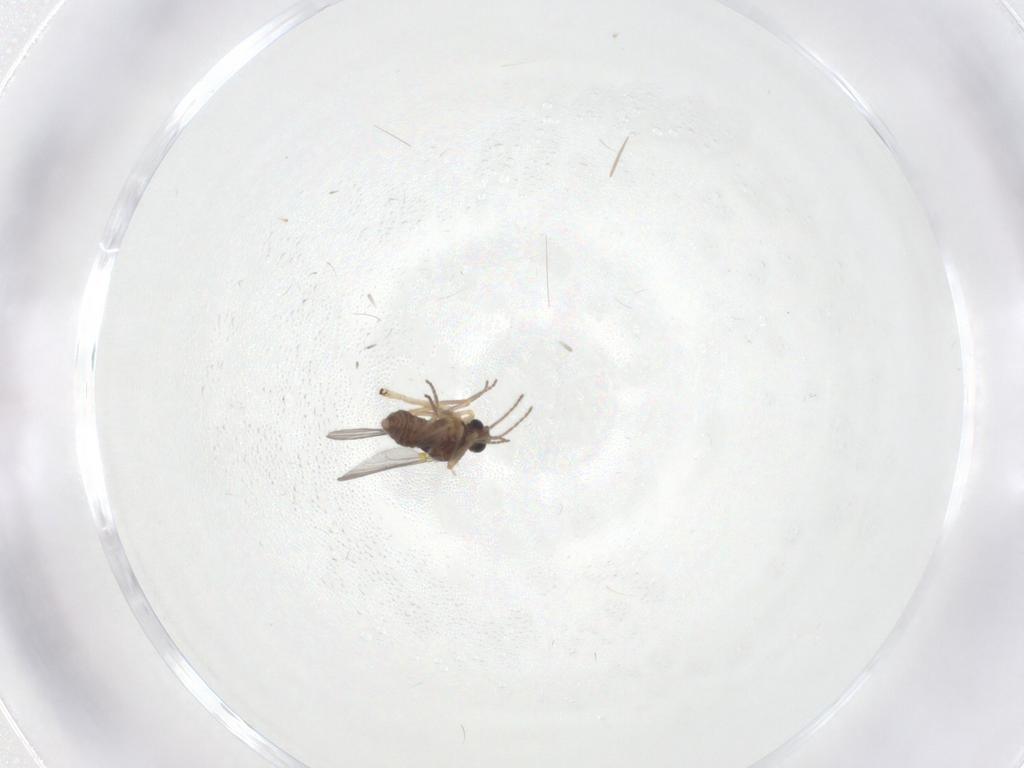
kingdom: Animalia
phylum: Arthropoda
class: Insecta
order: Diptera
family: Ceratopogonidae
